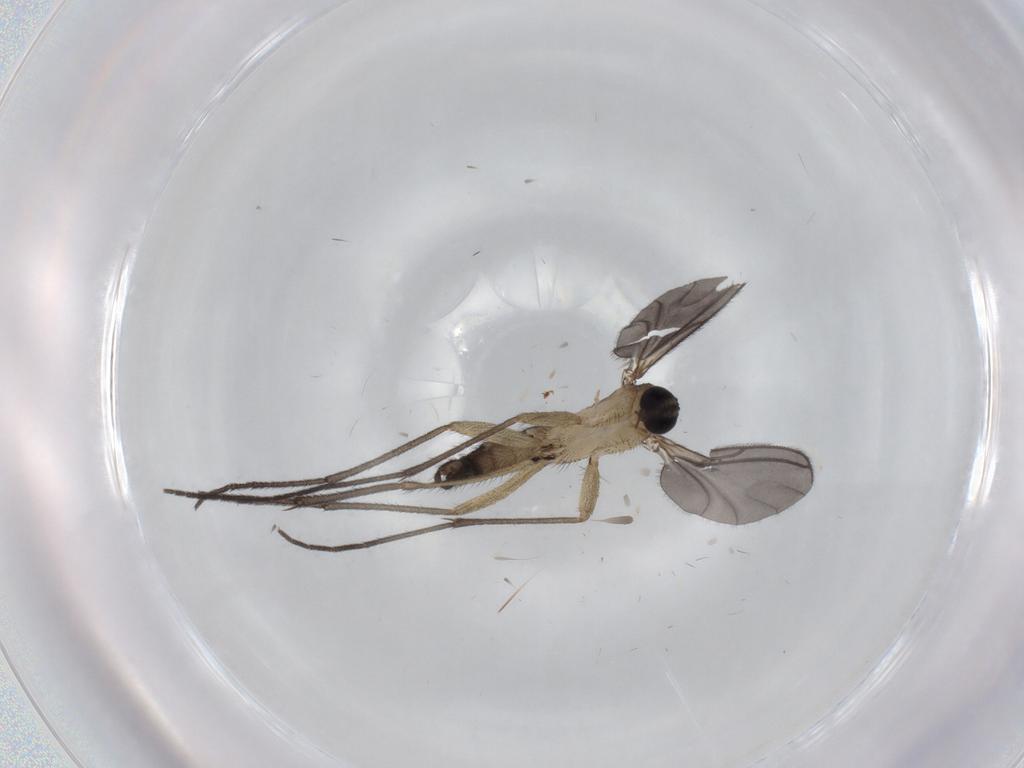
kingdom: Animalia
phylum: Arthropoda
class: Insecta
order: Diptera
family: Sciaridae
